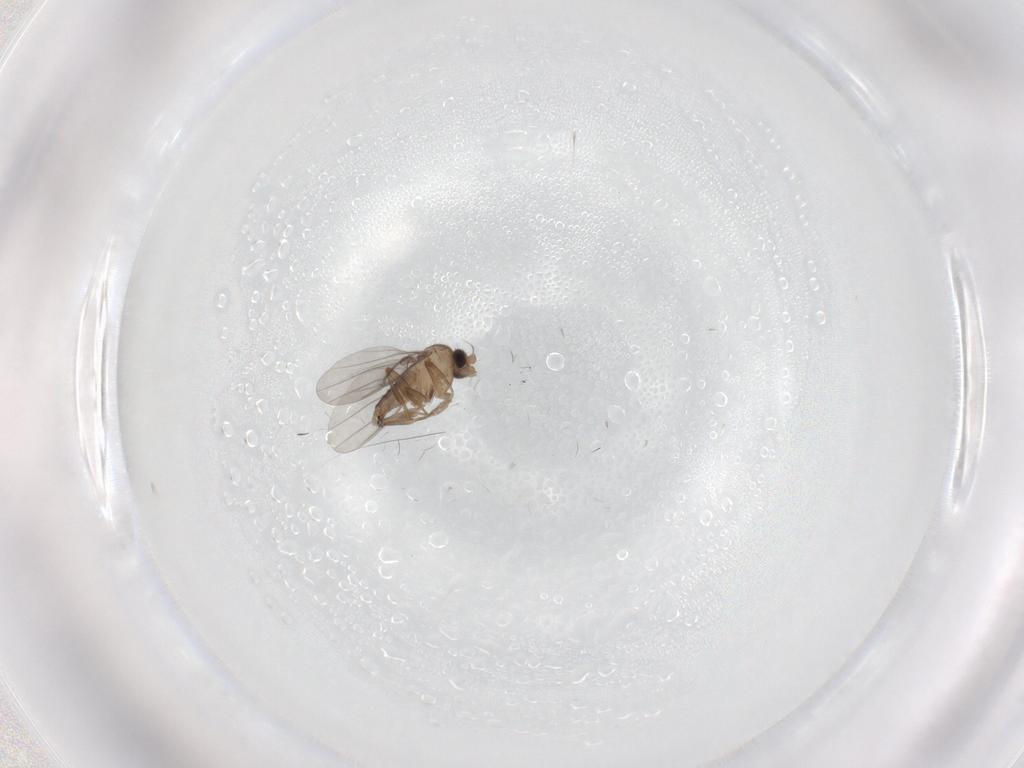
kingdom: Animalia
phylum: Arthropoda
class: Insecta
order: Diptera
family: Psychodidae
